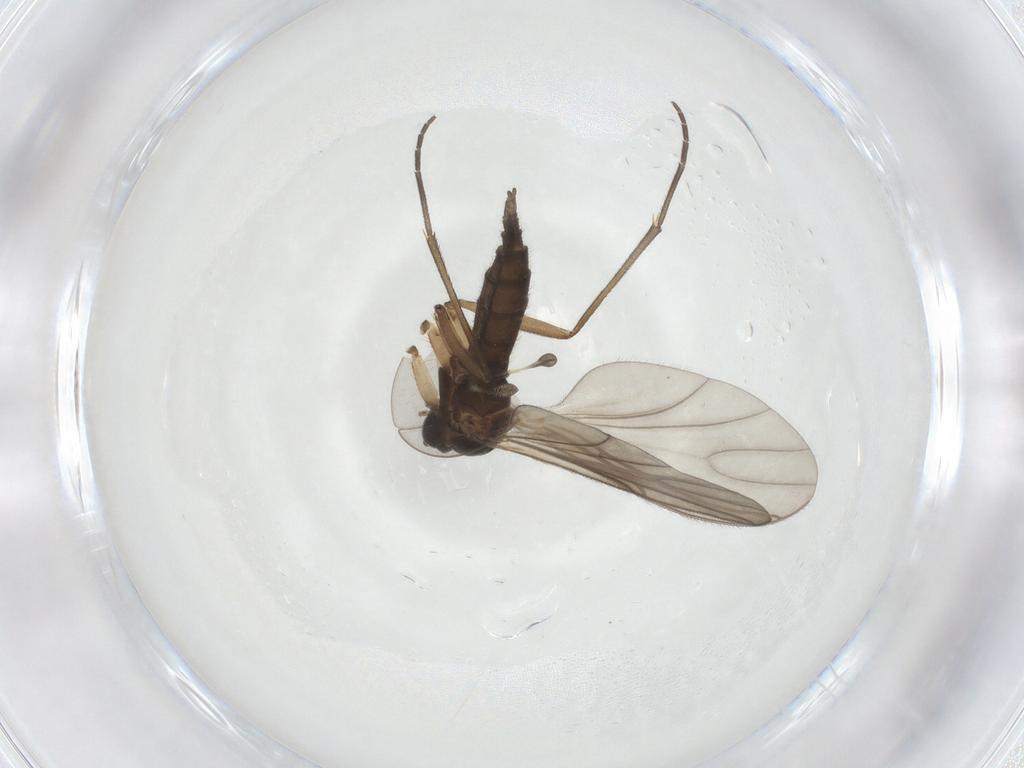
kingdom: Animalia
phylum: Arthropoda
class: Insecta
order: Diptera
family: Sciaridae
